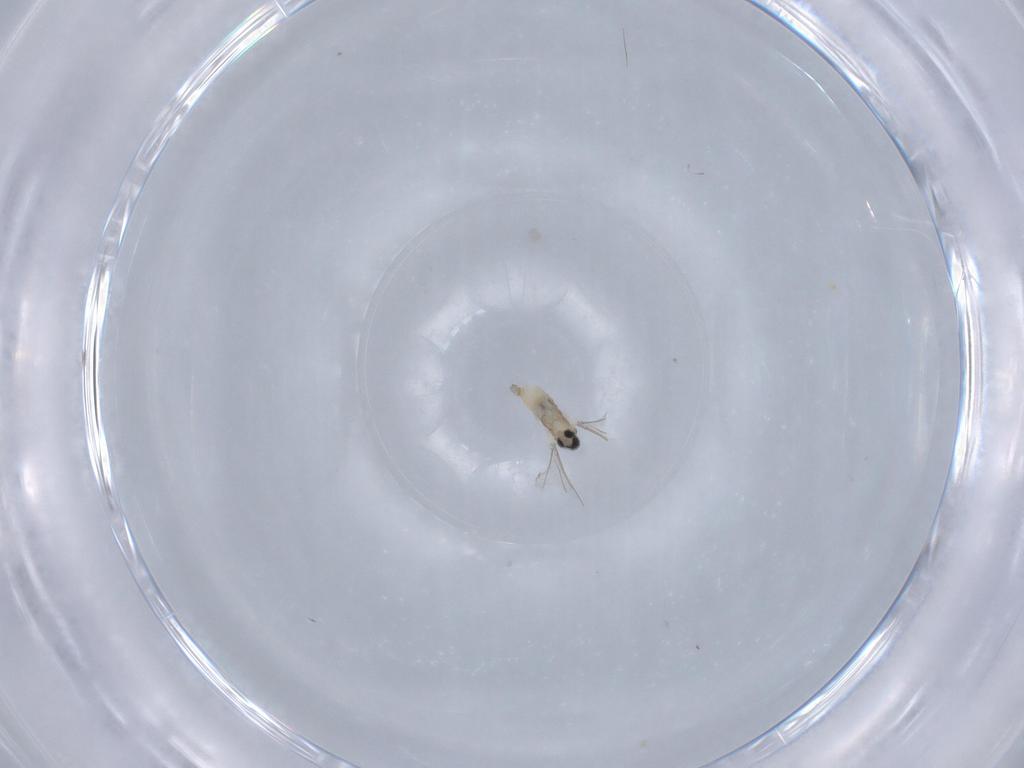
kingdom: Animalia
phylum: Arthropoda
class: Insecta
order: Diptera
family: Cecidomyiidae
